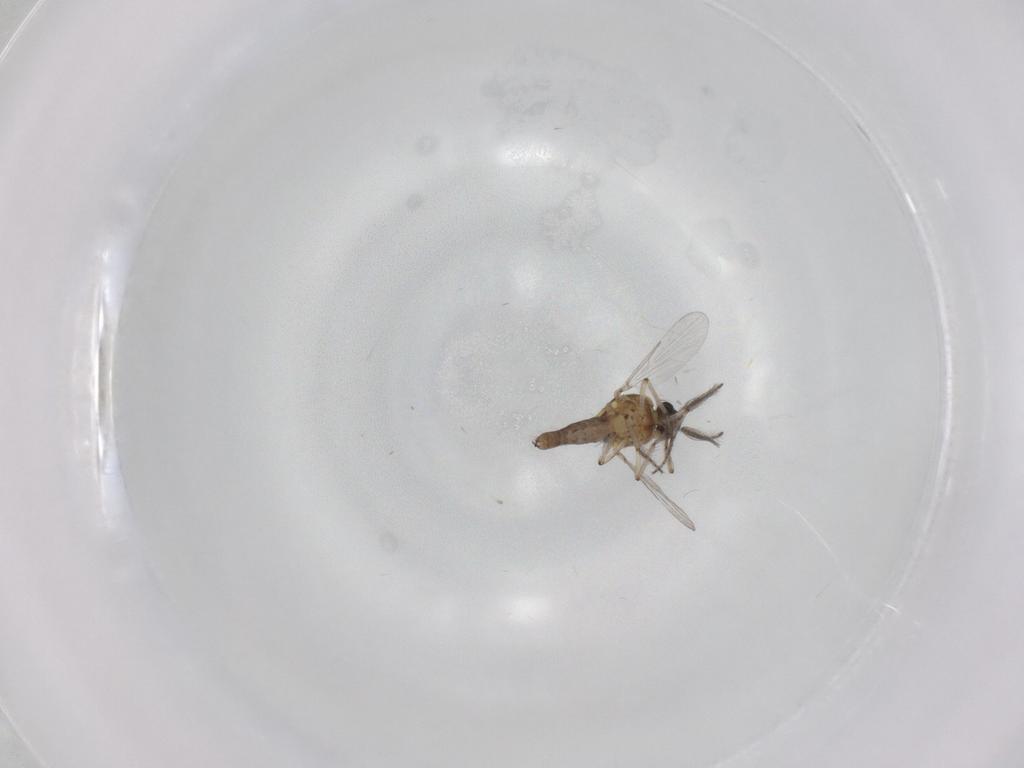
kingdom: Animalia
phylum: Arthropoda
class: Insecta
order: Diptera
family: Ceratopogonidae
